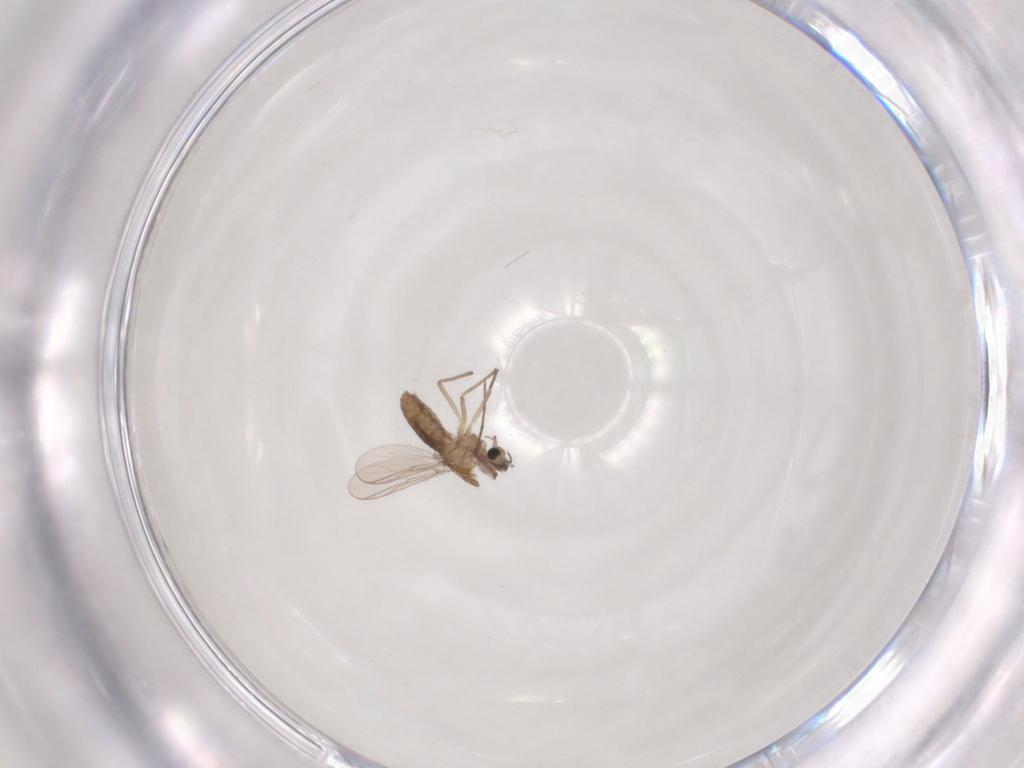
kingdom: Animalia
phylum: Arthropoda
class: Insecta
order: Diptera
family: Chironomidae
